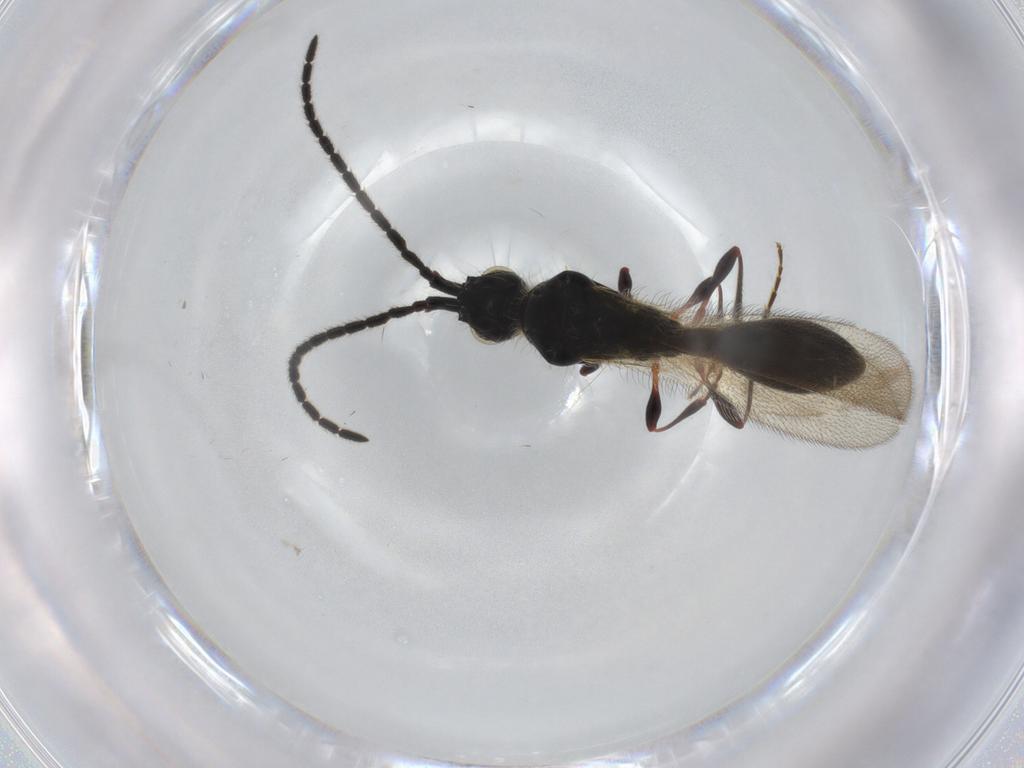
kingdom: Animalia
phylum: Arthropoda
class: Insecta
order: Hymenoptera
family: Diapriidae
